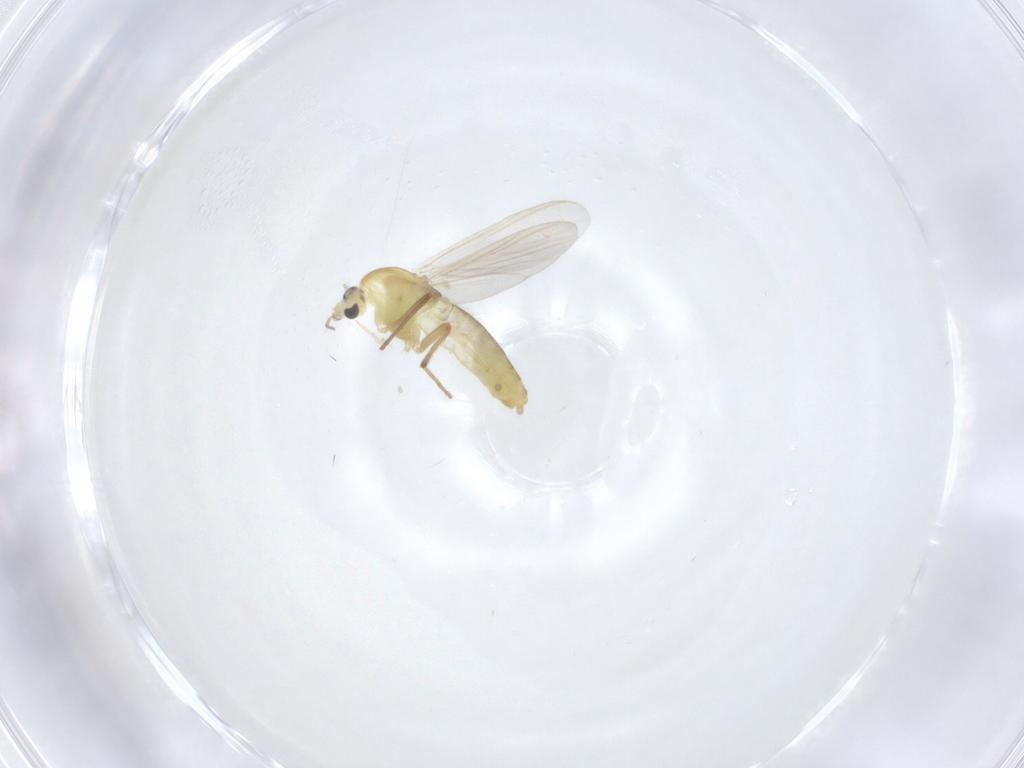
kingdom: Animalia
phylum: Arthropoda
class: Insecta
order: Diptera
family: Chironomidae
